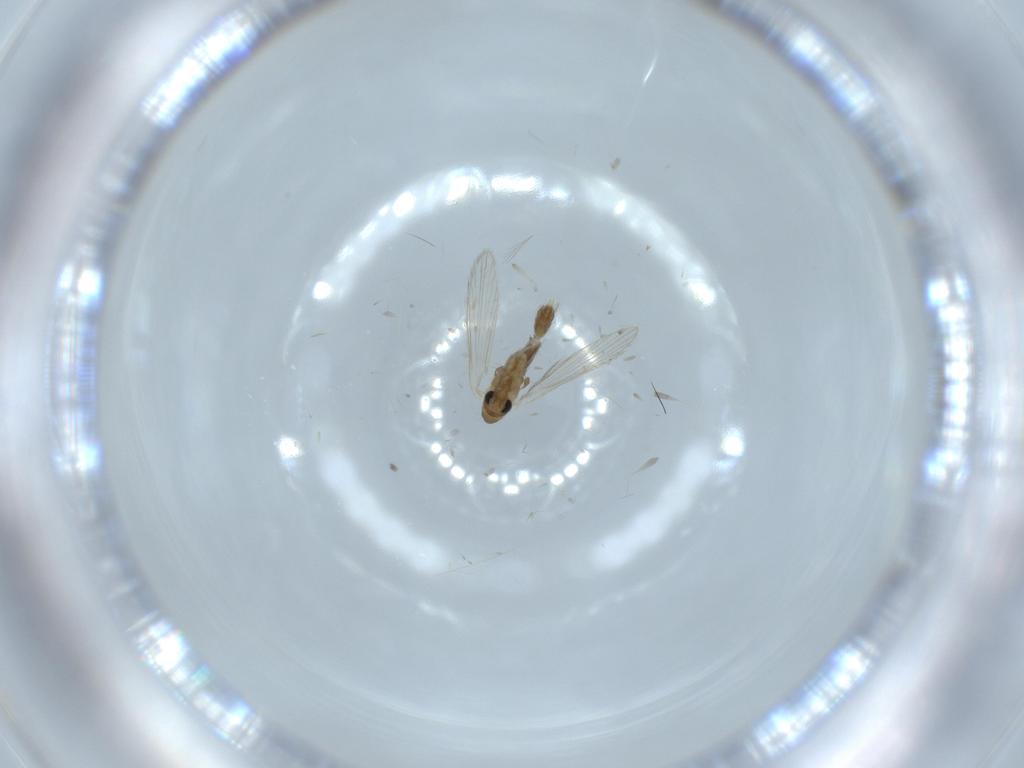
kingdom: Animalia
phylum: Arthropoda
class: Insecta
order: Diptera
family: Psychodidae
